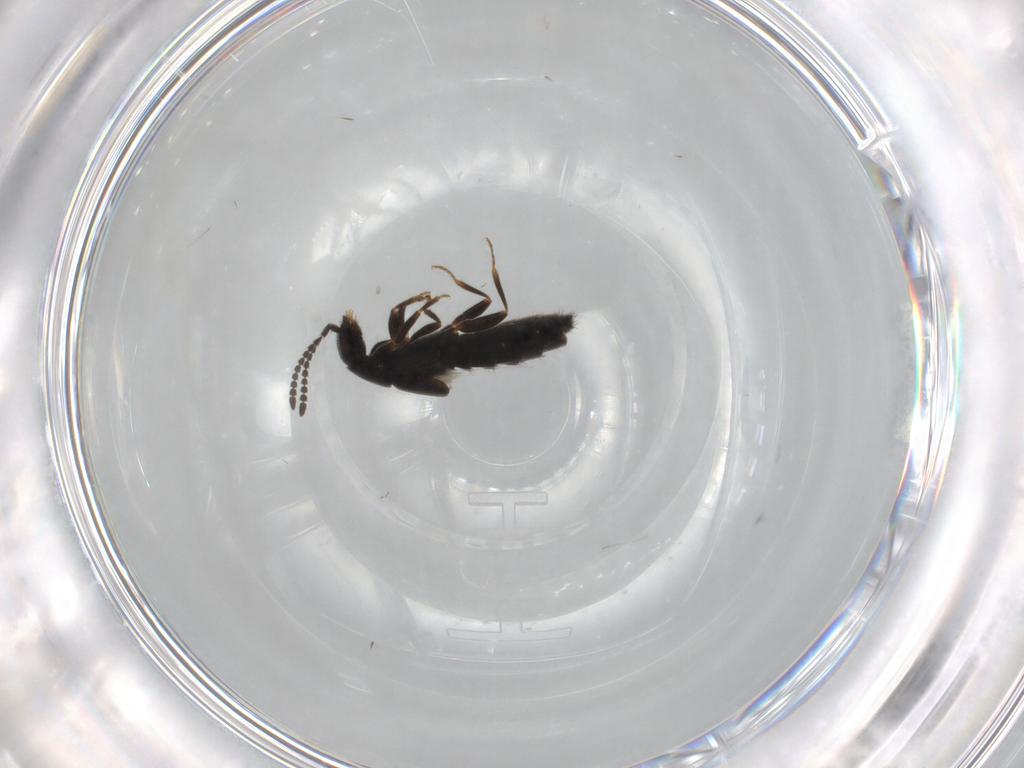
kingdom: Animalia
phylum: Arthropoda
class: Insecta
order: Coleoptera
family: Staphylinidae
